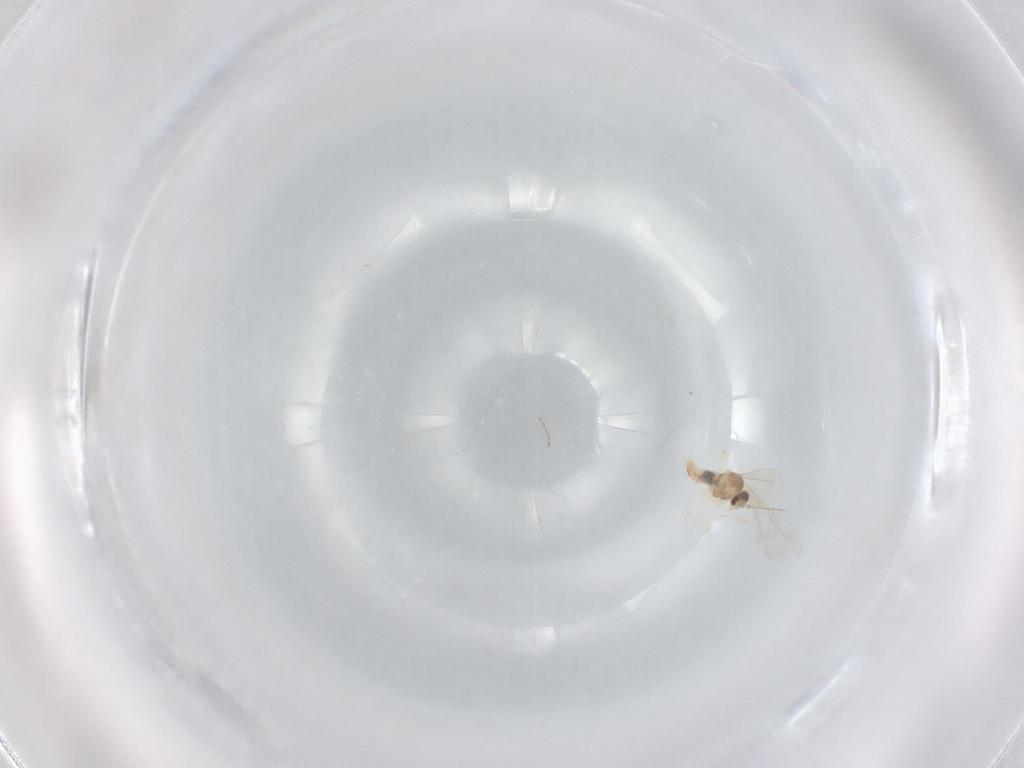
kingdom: Animalia
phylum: Arthropoda
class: Insecta
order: Diptera
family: Cecidomyiidae
